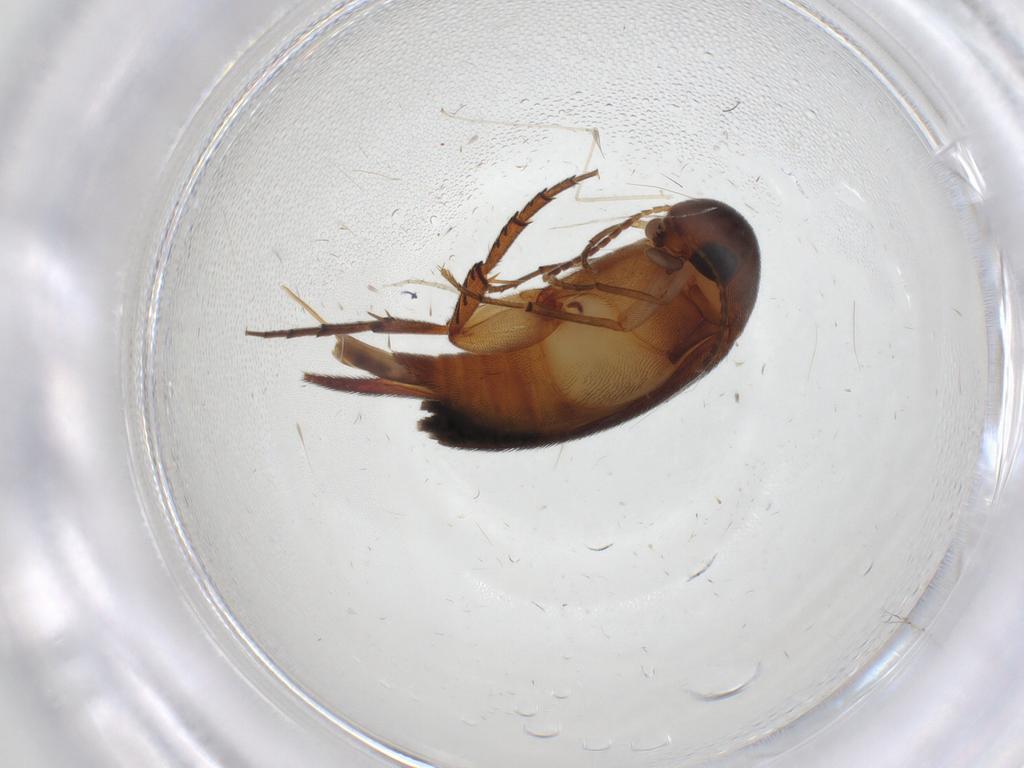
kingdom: Animalia
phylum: Arthropoda
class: Insecta
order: Coleoptera
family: Mordellidae
